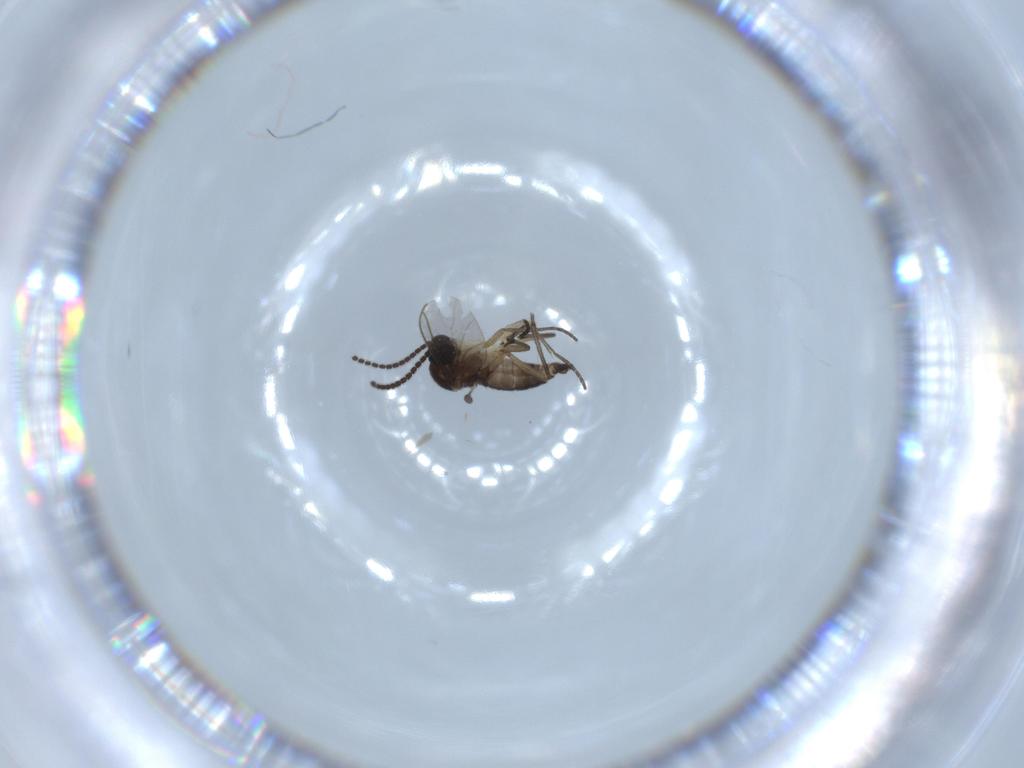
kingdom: Animalia
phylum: Arthropoda
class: Insecta
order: Diptera
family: Sciaridae
